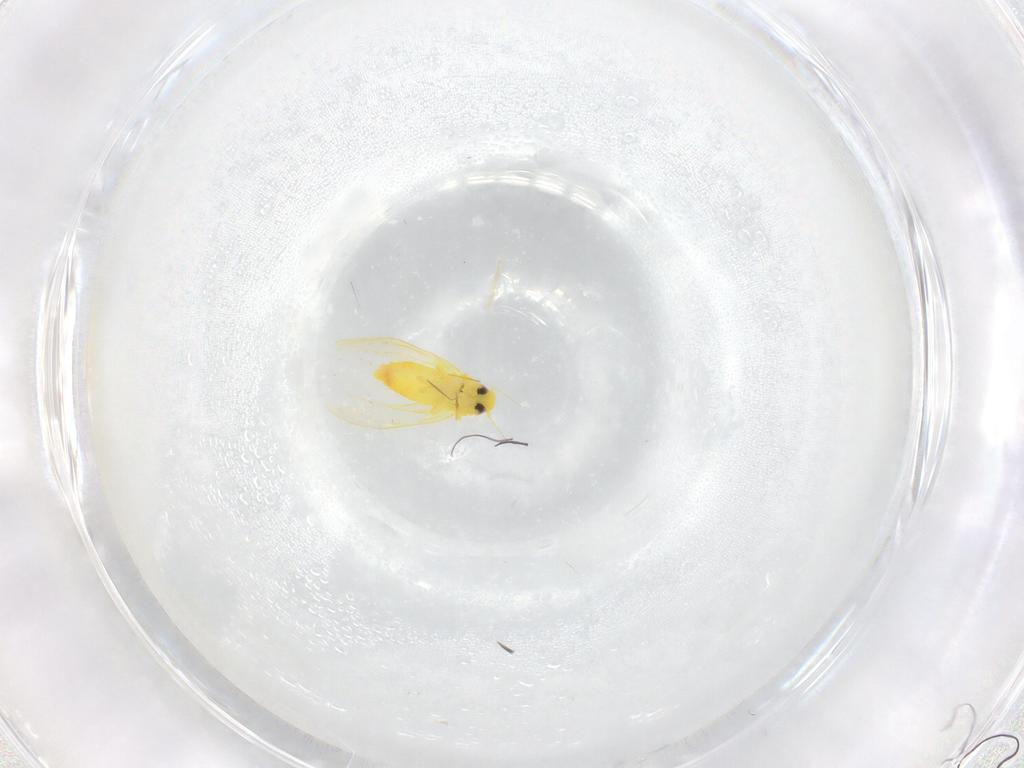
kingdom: Animalia
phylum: Arthropoda
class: Insecta
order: Hemiptera
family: Aleyrodidae
